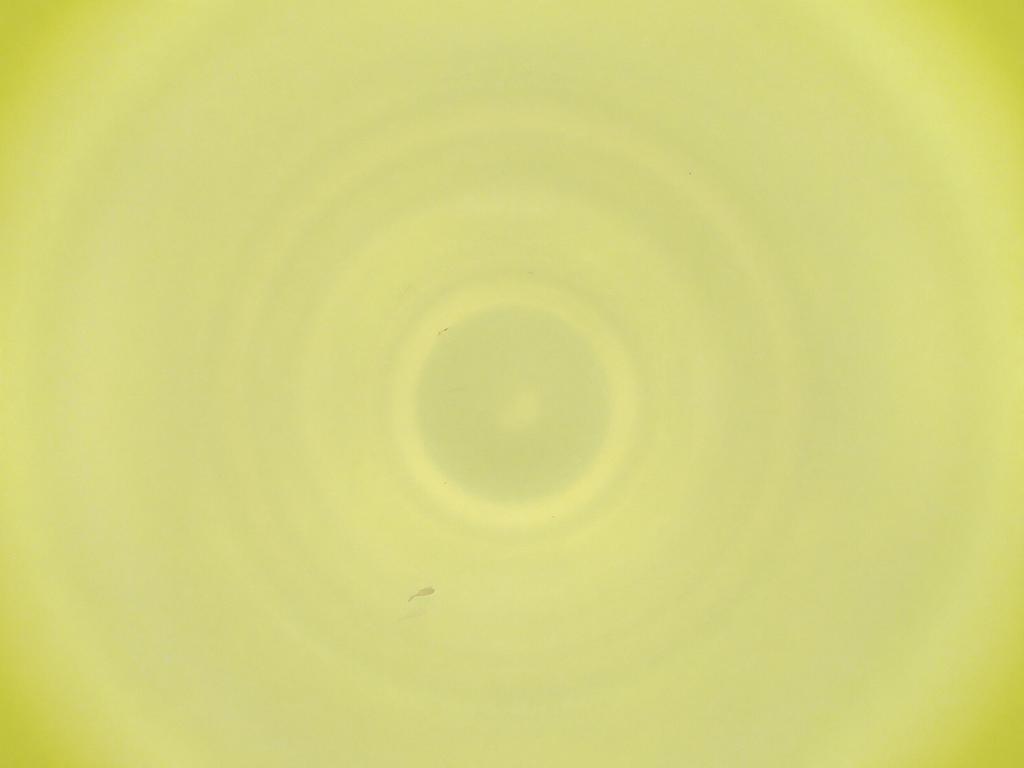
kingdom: Animalia
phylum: Arthropoda
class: Insecta
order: Diptera
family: Cecidomyiidae
